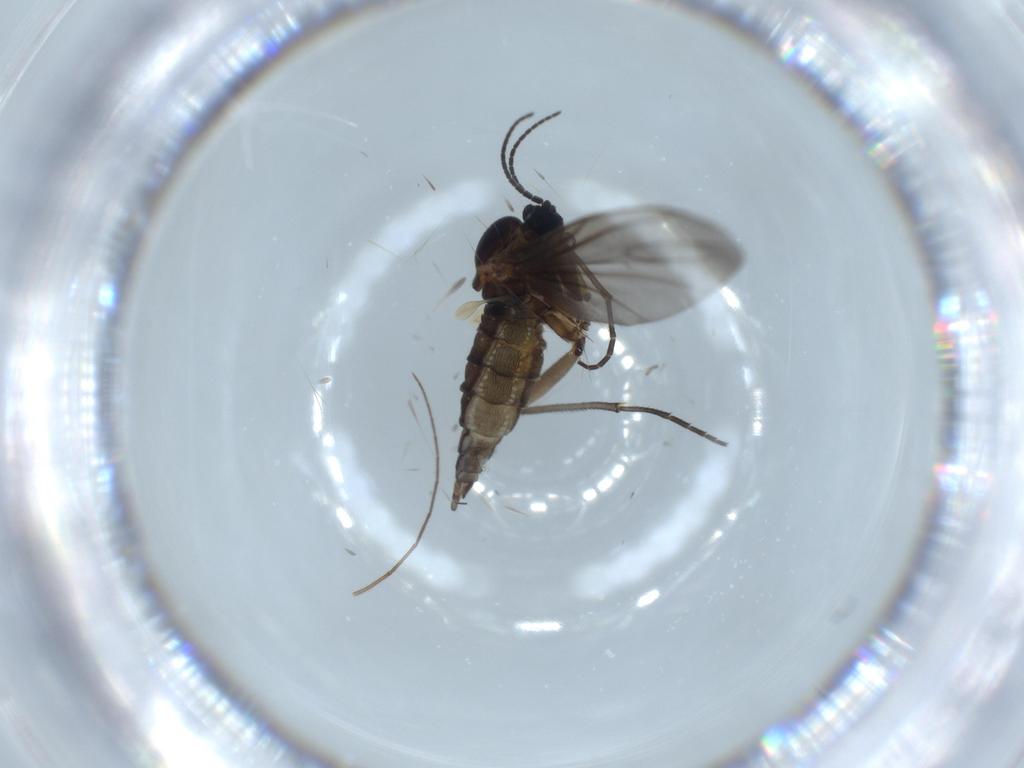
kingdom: Animalia
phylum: Arthropoda
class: Insecta
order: Diptera
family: Sciaridae
